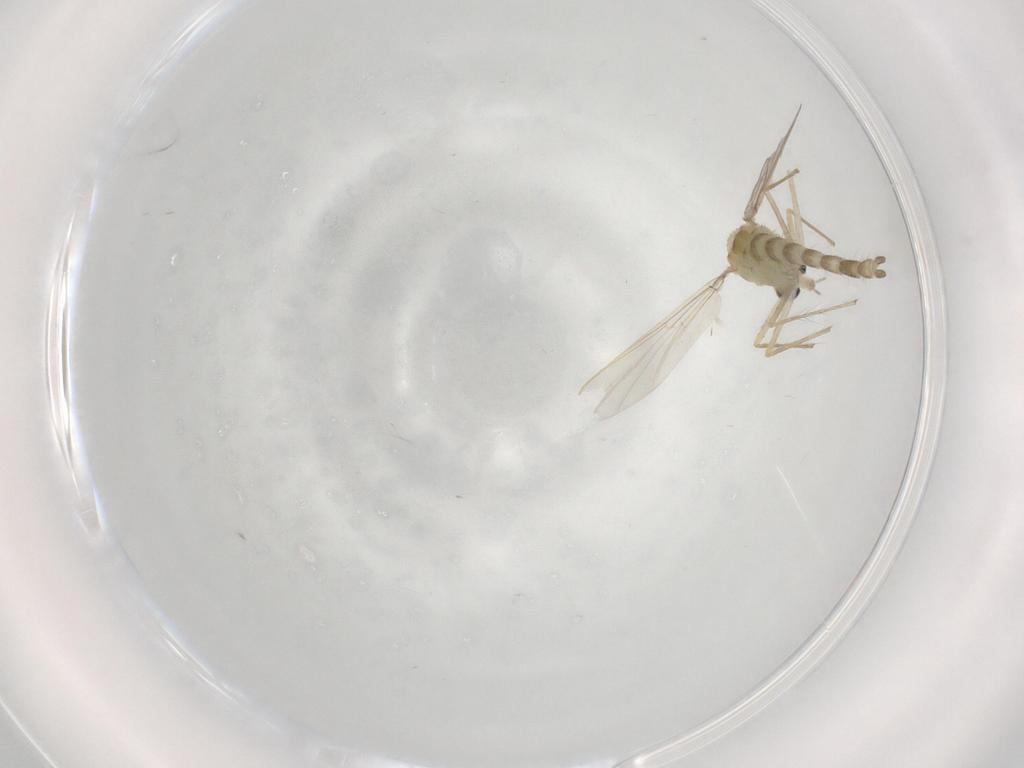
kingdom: Animalia
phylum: Arthropoda
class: Insecta
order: Diptera
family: Chironomidae
